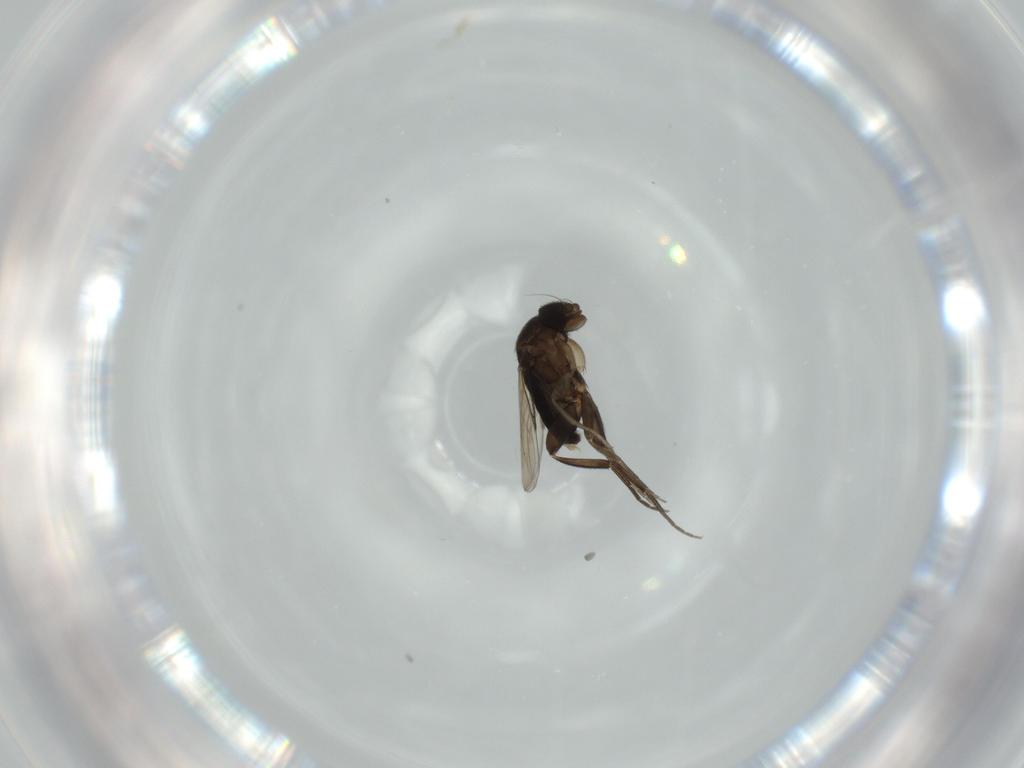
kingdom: Animalia
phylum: Arthropoda
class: Insecta
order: Diptera
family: Phoridae
